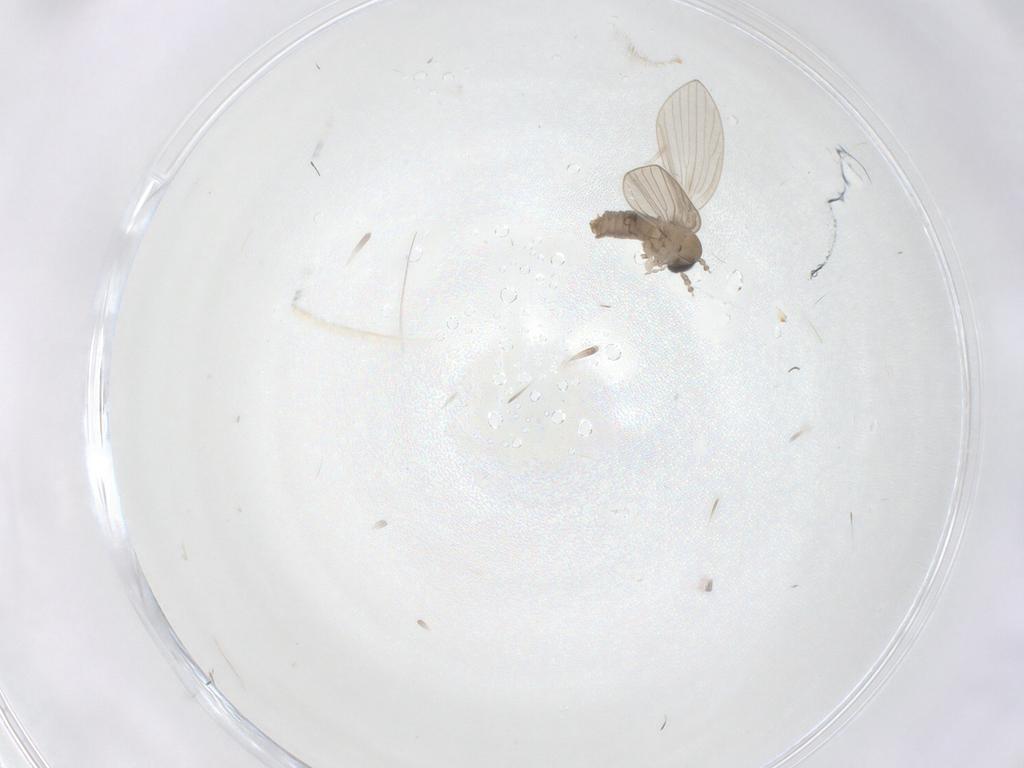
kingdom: Animalia
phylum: Arthropoda
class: Insecta
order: Diptera
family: Psychodidae
